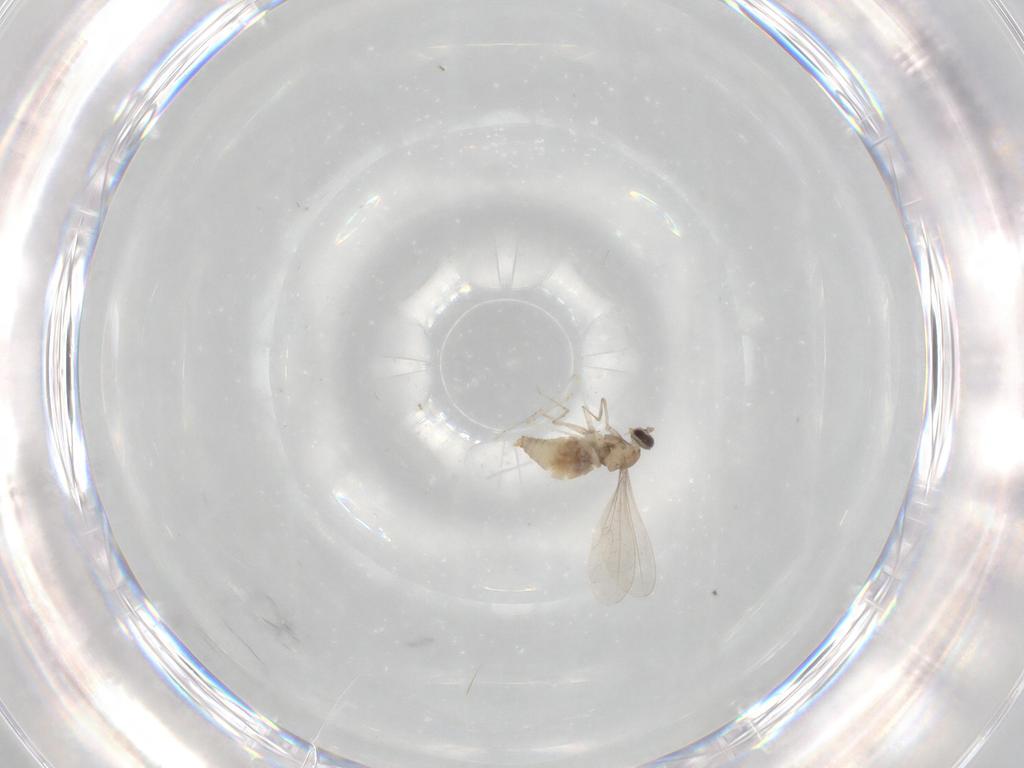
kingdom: Animalia
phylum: Arthropoda
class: Insecta
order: Diptera
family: Cecidomyiidae
